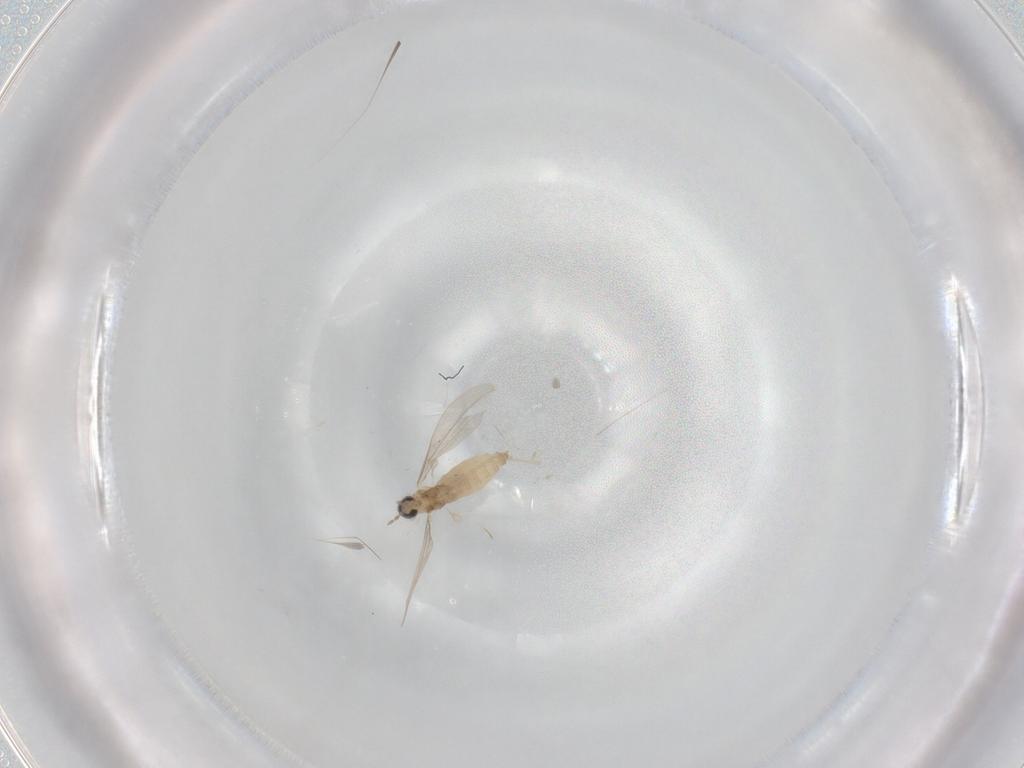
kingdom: Animalia
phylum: Arthropoda
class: Insecta
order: Diptera
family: Cecidomyiidae
